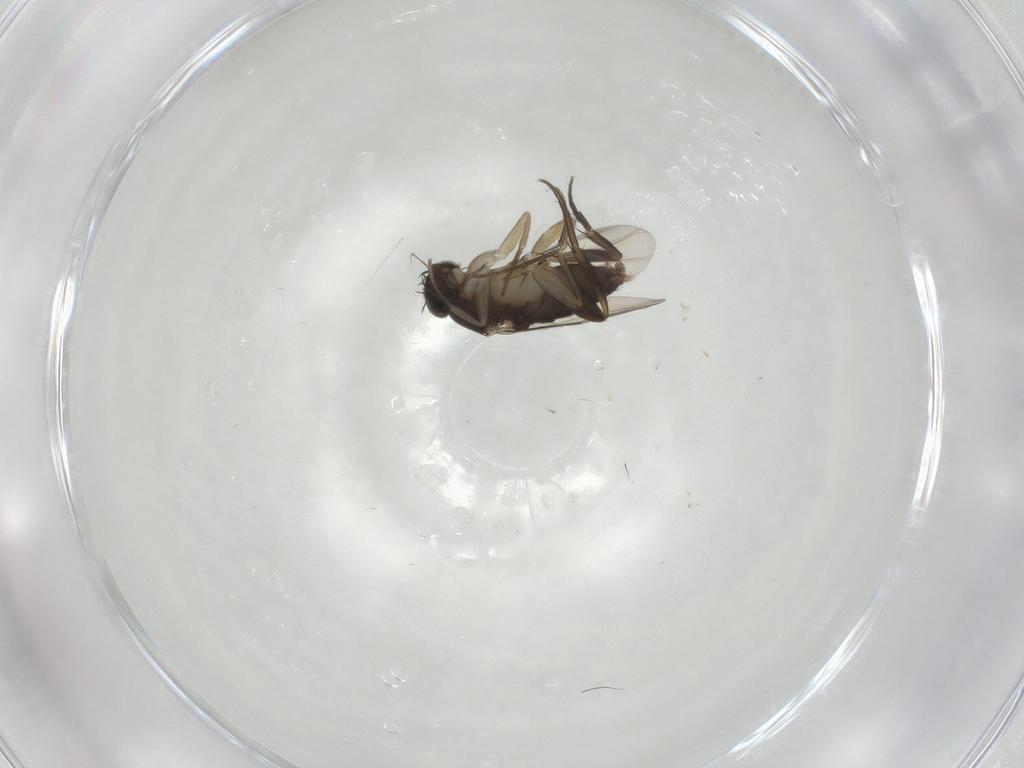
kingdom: Animalia
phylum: Arthropoda
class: Insecta
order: Diptera
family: Phoridae
